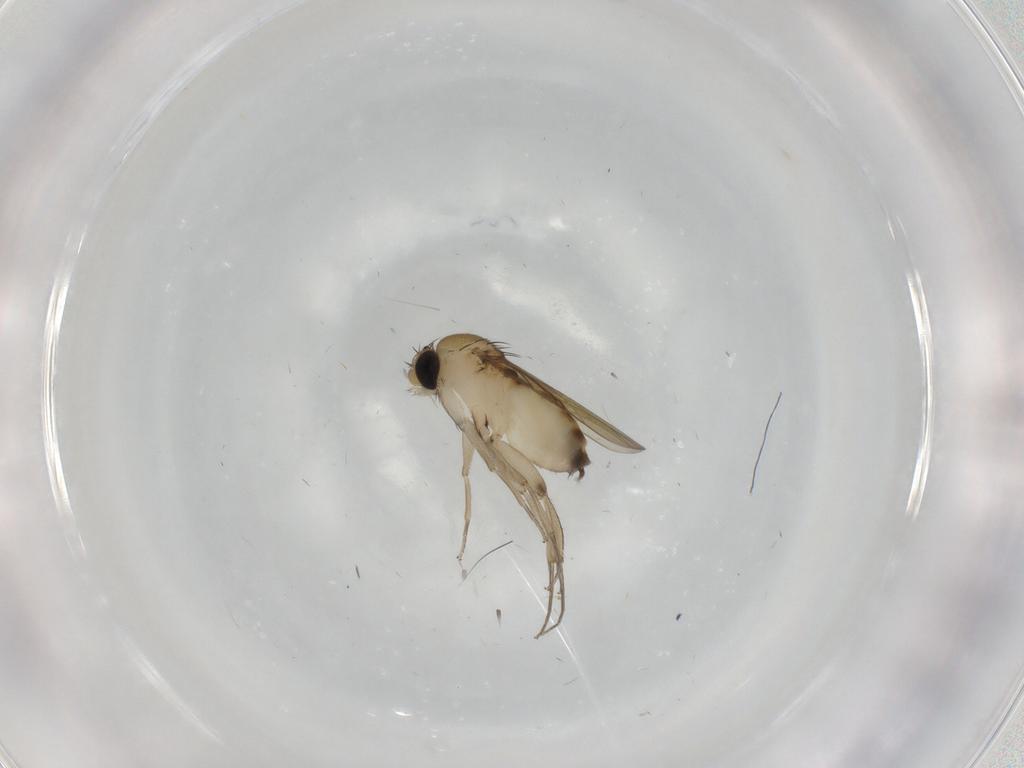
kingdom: Animalia
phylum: Arthropoda
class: Insecta
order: Diptera
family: Phoridae
